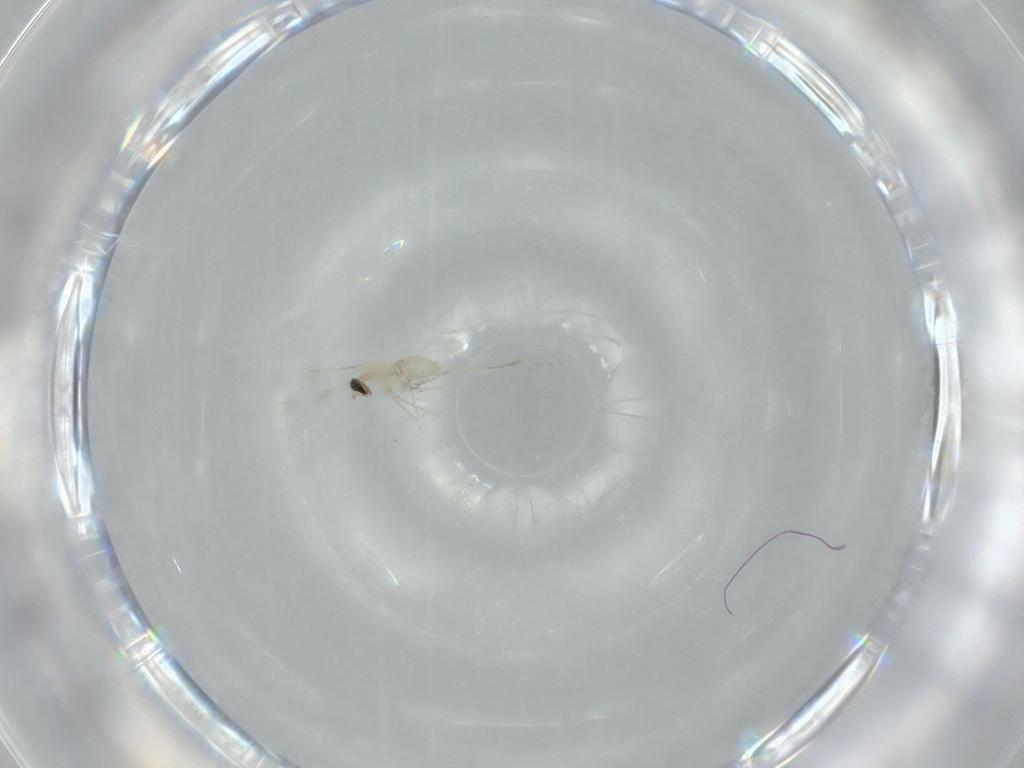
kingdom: Animalia
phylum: Arthropoda
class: Insecta
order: Diptera
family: Cecidomyiidae
